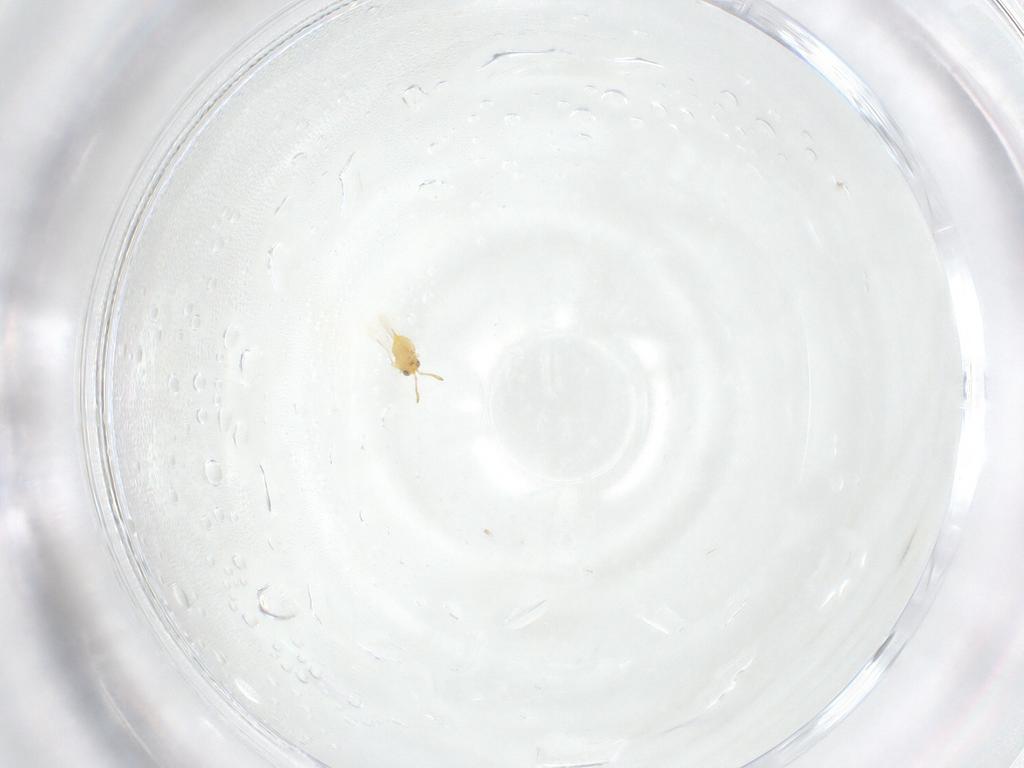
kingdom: Animalia
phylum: Arthropoda
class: Insecta
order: Hymenoptera
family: Aphelinidae
